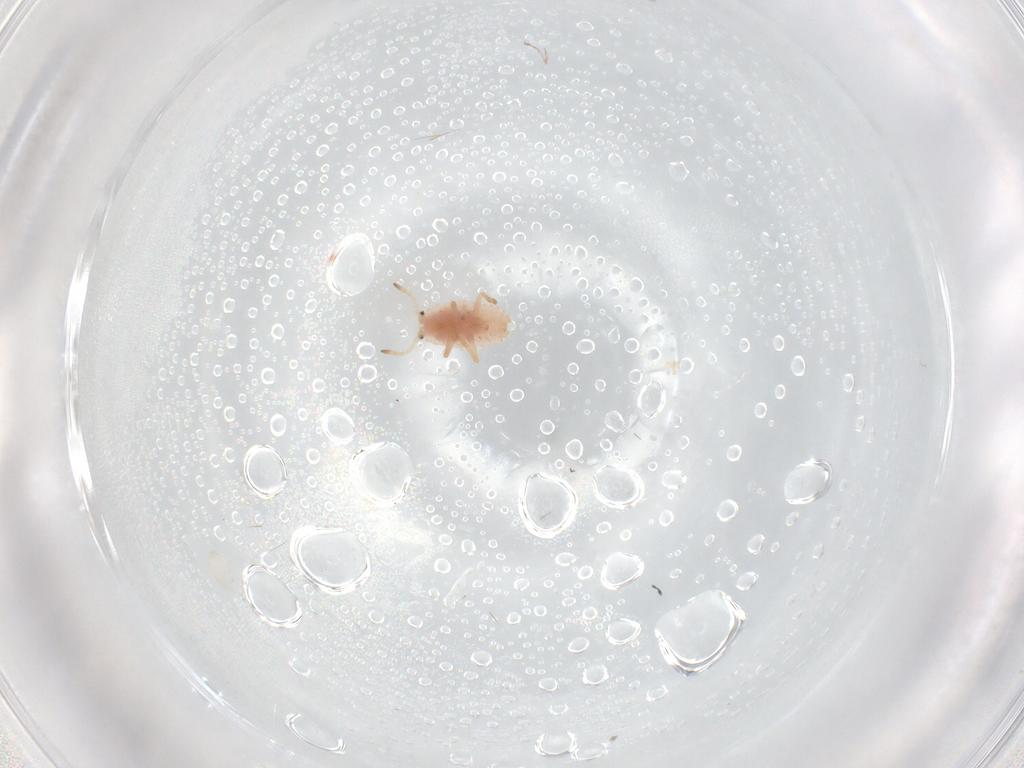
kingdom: Animalia
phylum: Arthropoda
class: Insecta
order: Hemiptera
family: Coccoidea_incertae_sedis
